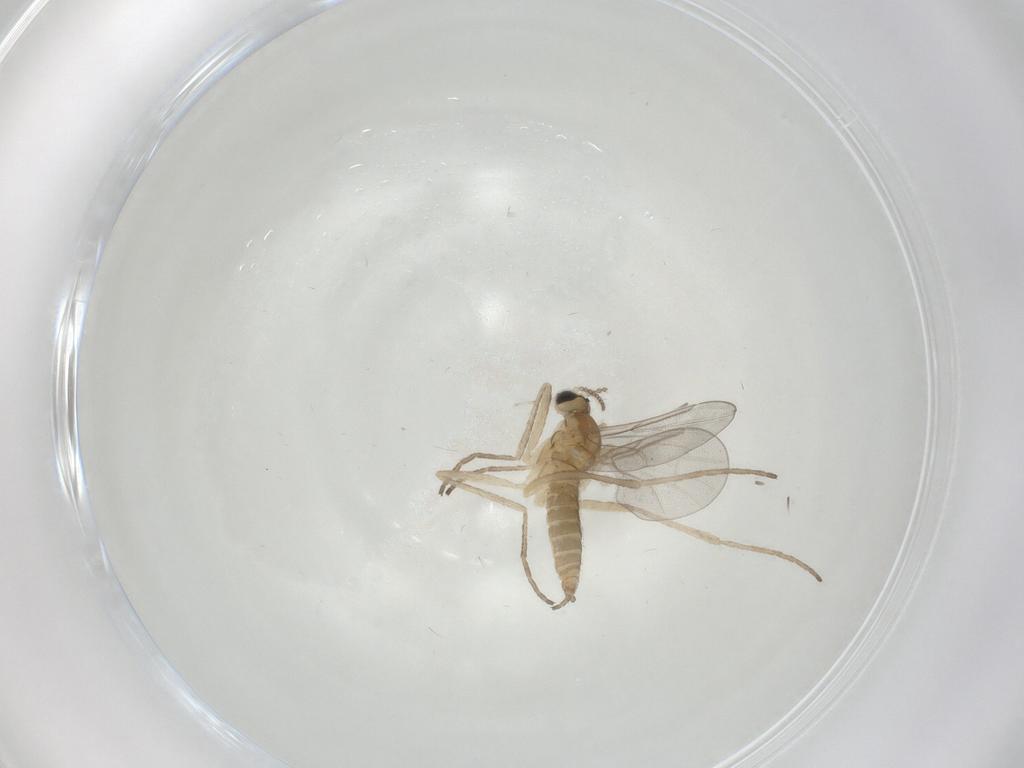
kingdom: Animalia
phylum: Arthropoda
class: Insecta
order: Diptera
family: Cecidomyiidae
